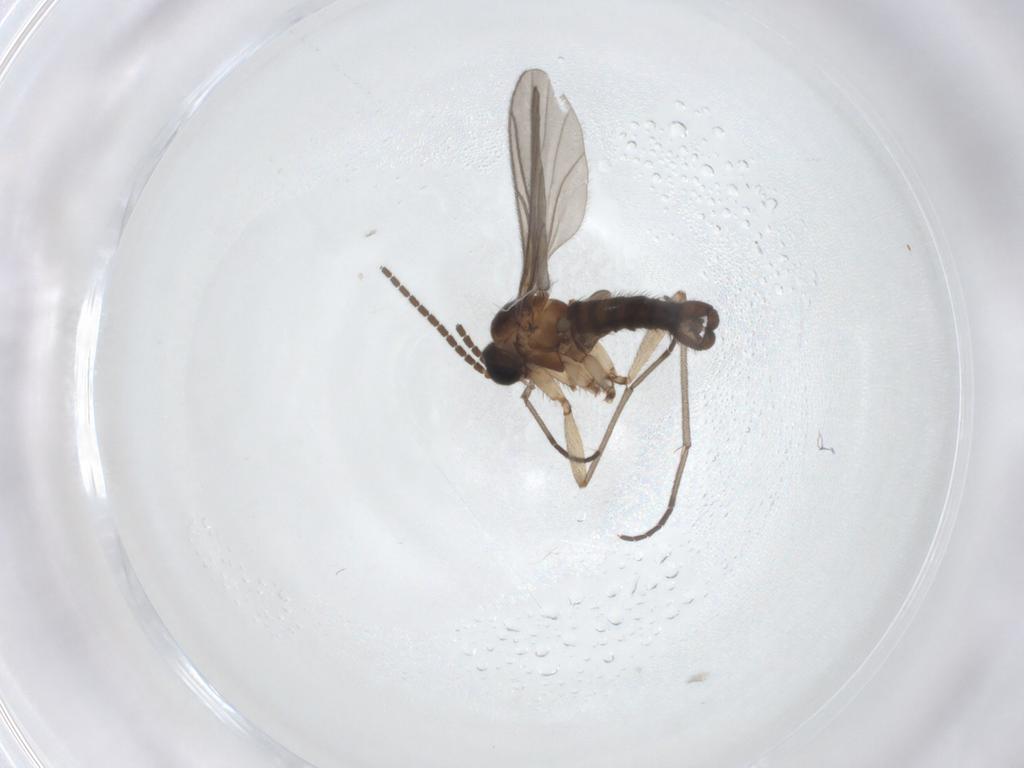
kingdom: Animalia
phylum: Arthropoda
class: Insecta
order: Diptera
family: Sciaridae
